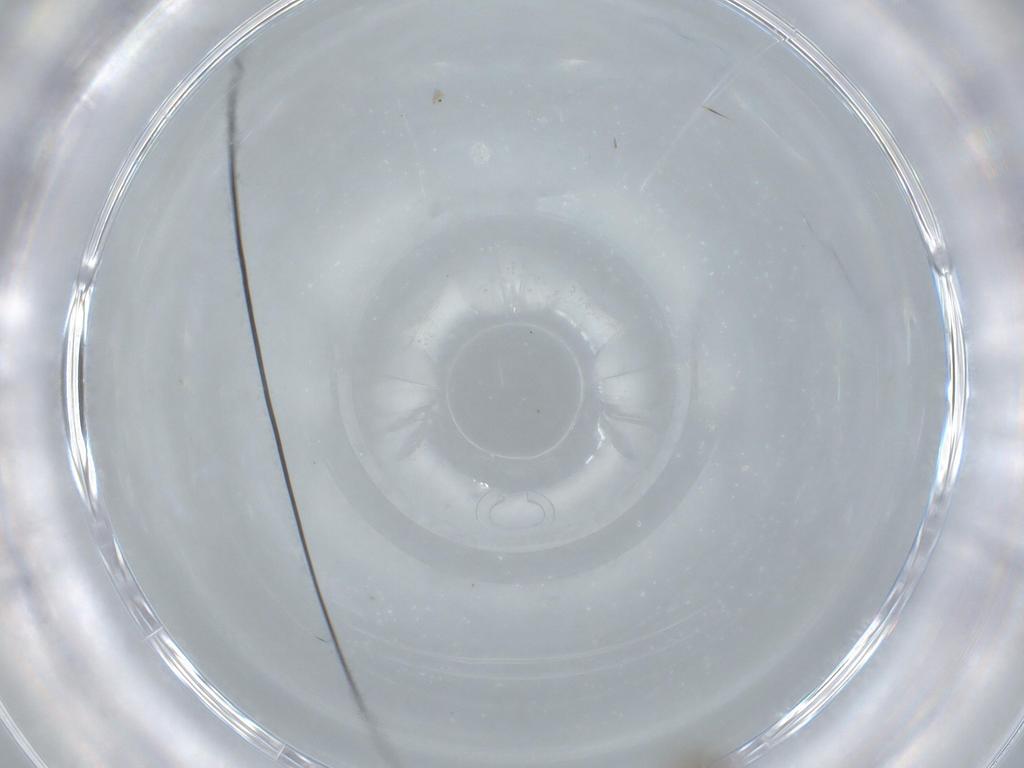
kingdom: Animalia
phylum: Arthropoda
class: Insecta
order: Diptera
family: Cecidomyiidae
